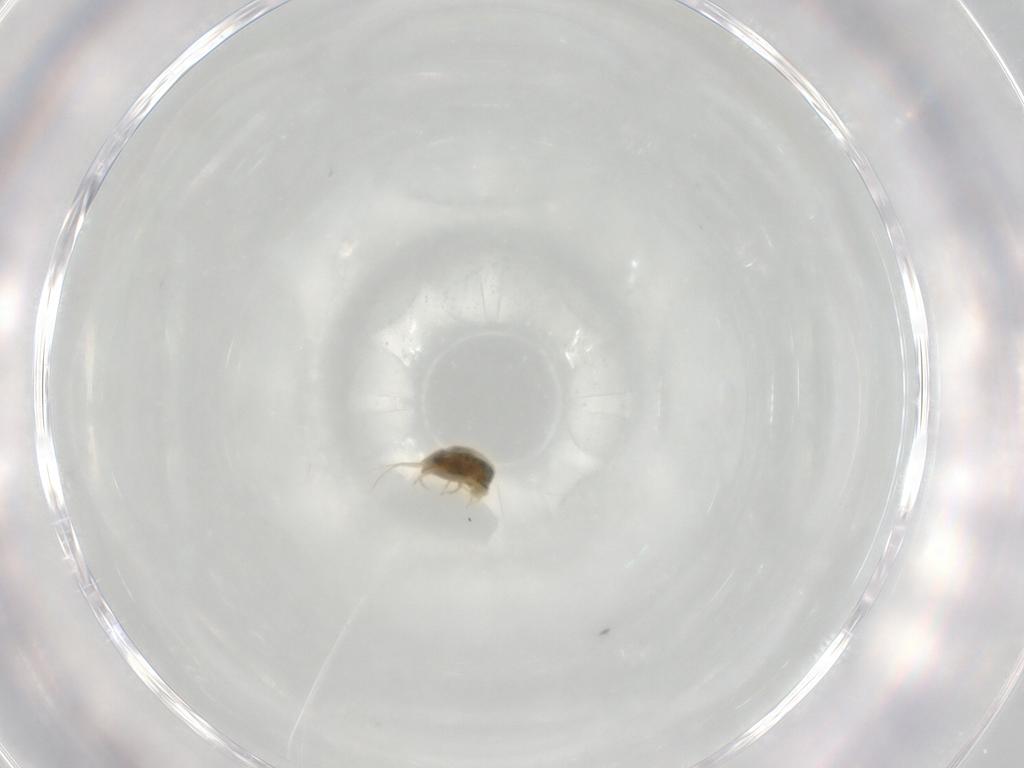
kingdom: Animalia
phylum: Arthropoda
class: Arachnida
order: Trombidiformes
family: Tetranychidae
